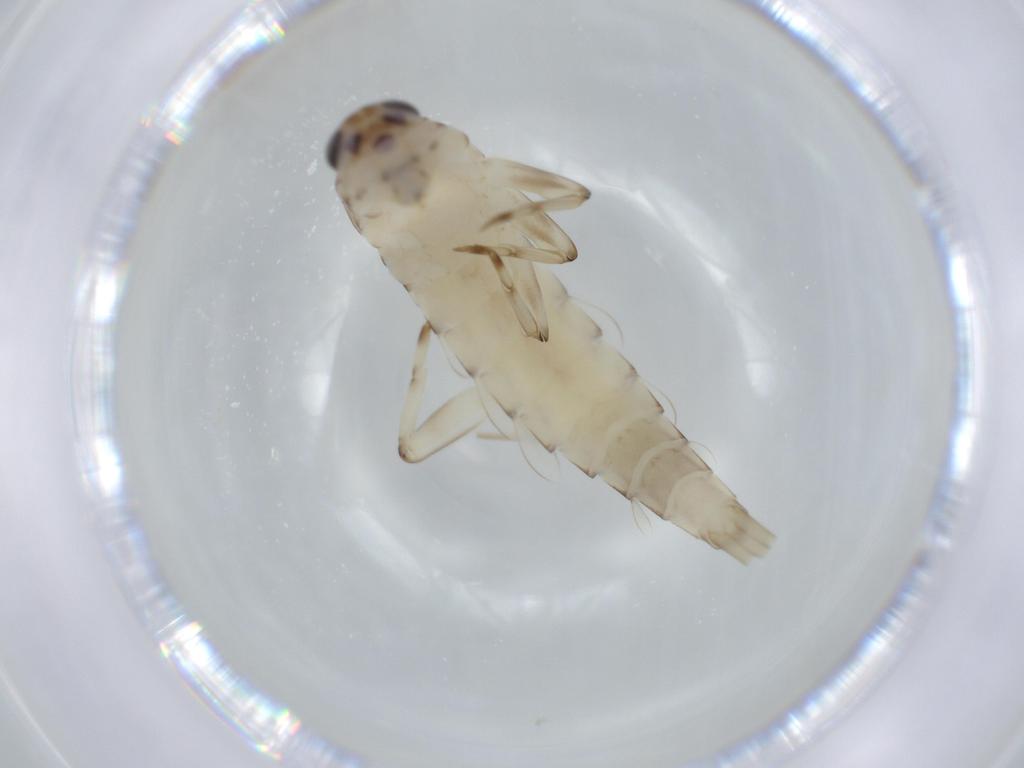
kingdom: Animalia
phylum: Arthropoda
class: Insecta
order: Ephemeroptera
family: Baetidae
